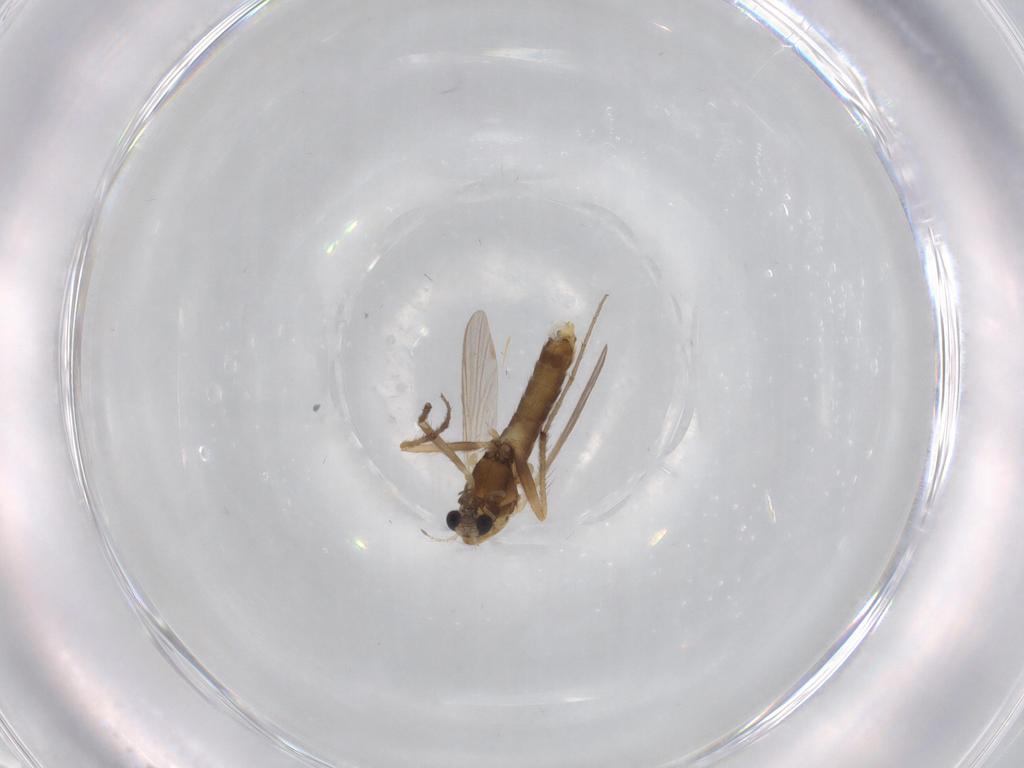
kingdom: Animalia
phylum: Arthropoda
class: Insecta
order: Diptera
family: Chironomidae
